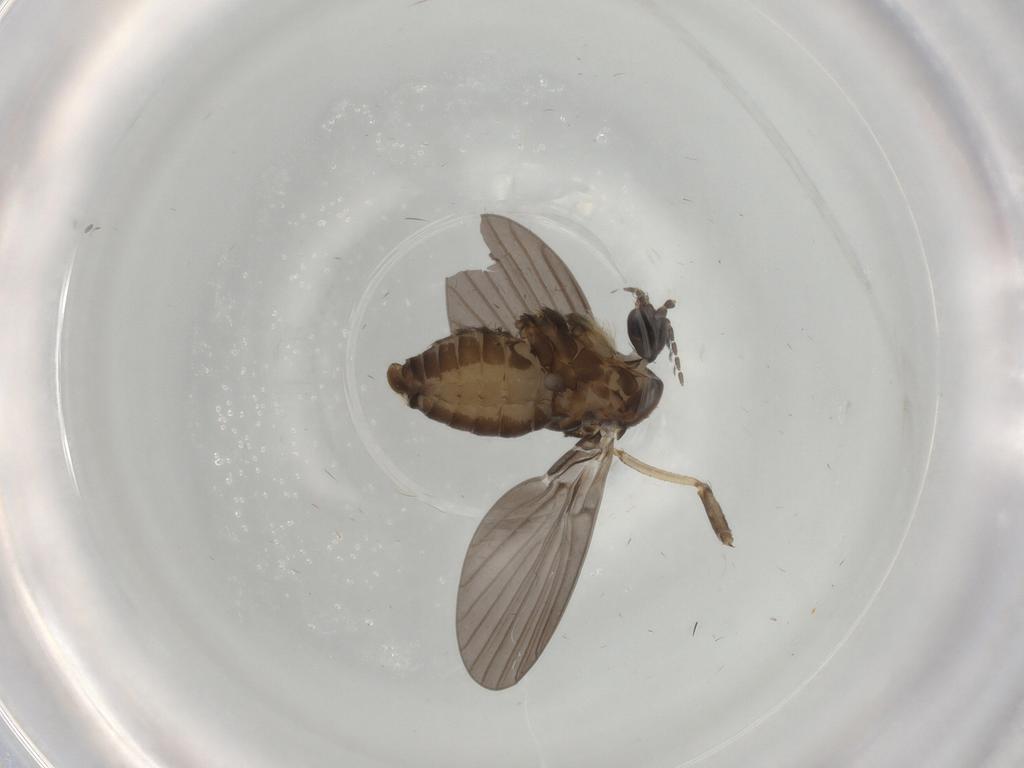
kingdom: Animalia
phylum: Arthropoda
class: Insecta
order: Diptera
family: Psychodidae
